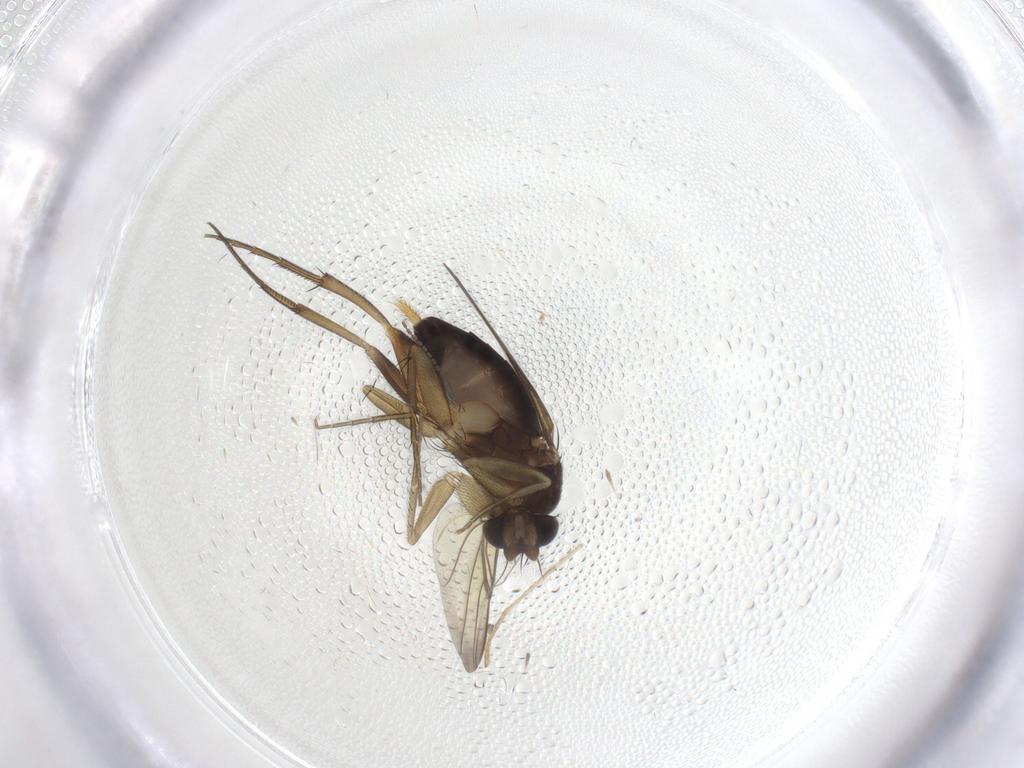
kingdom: Animalia
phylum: Arthropoda
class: Insecta
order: Diptera
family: Phoridae
